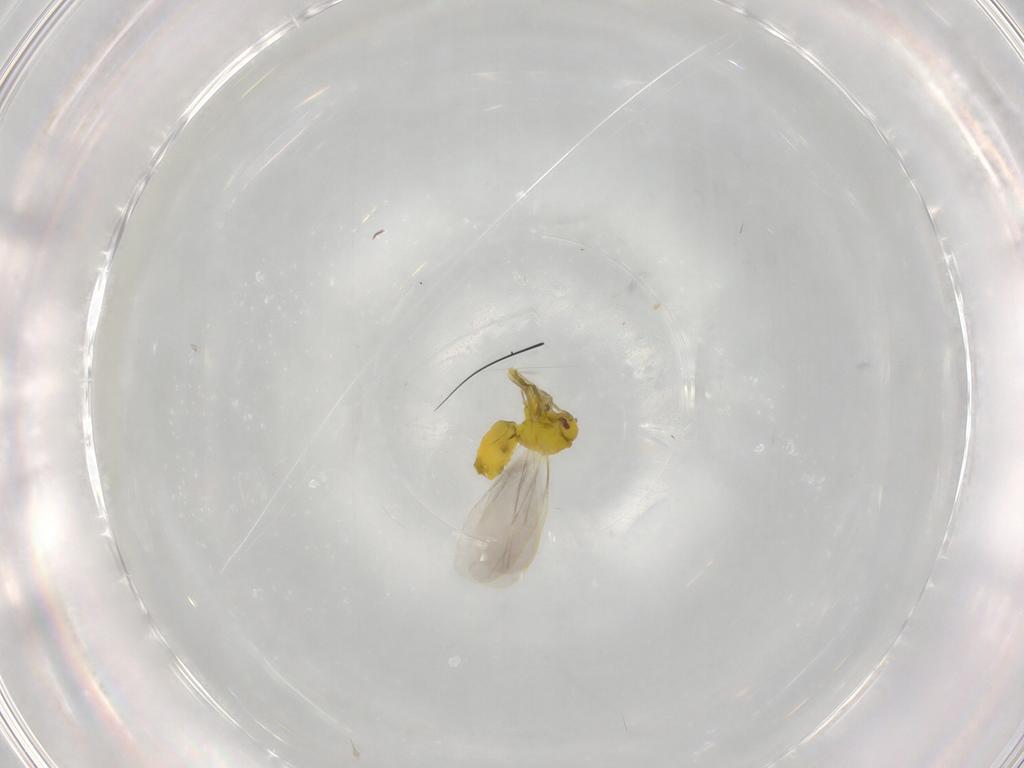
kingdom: Animalia
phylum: Arthropoda
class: Insecta
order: Hemiptera
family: Aleyrodidae
